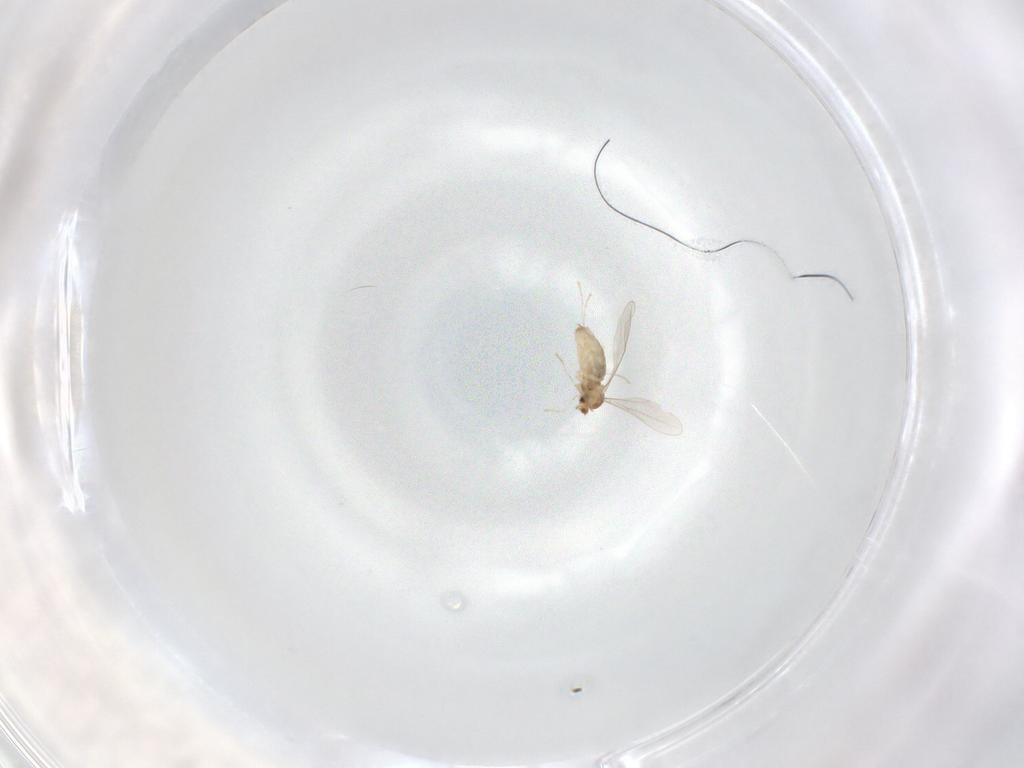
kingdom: Animalia
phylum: Arthropoda
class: Insecta
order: Diptera
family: Cecidomyiidae
